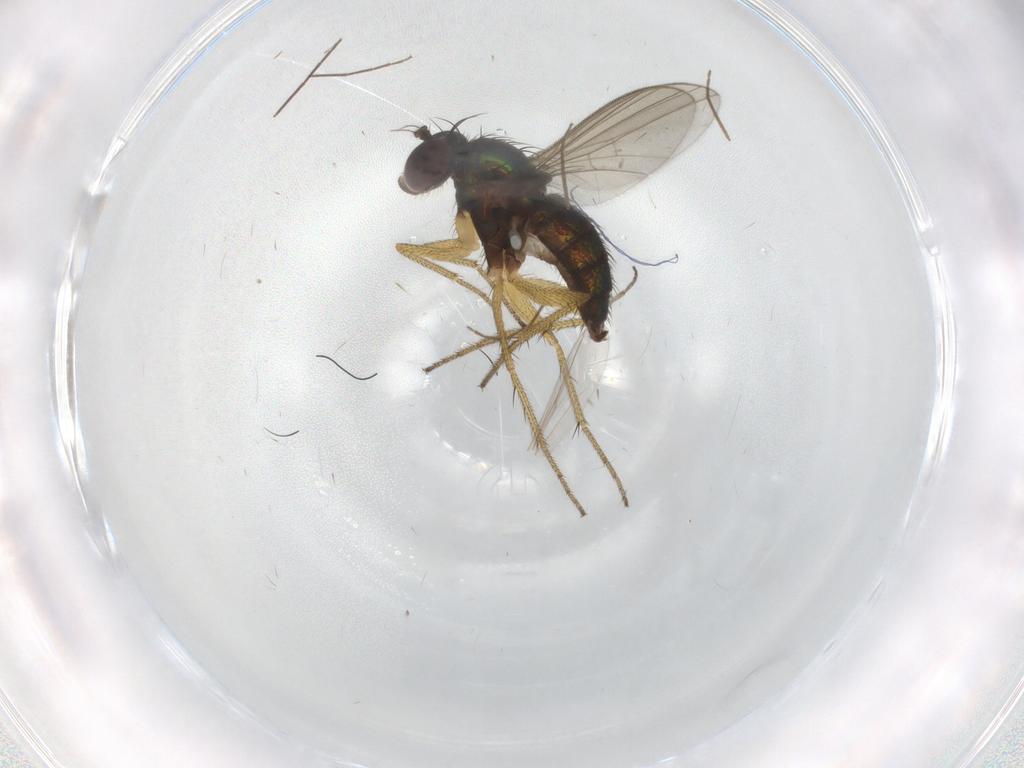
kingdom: Animalia
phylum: Arthropoda
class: Insecta
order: Diptera
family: Chironomidae
